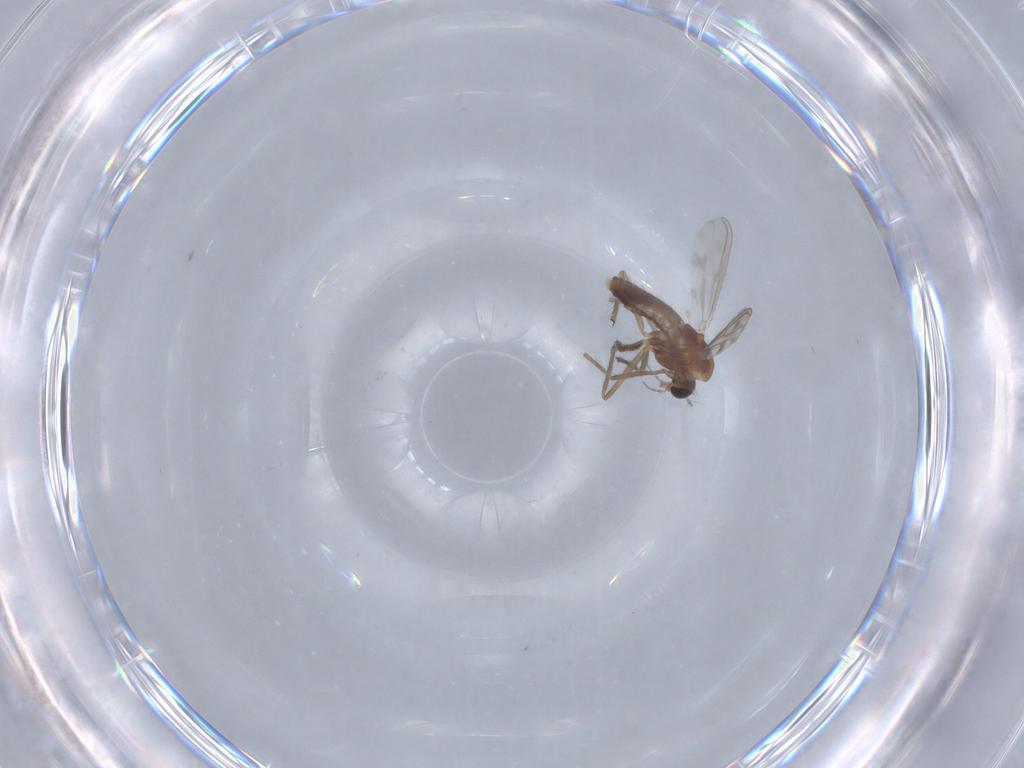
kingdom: Animalia
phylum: Arthropoda
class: Insecta
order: Diptera
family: Chironomidae
